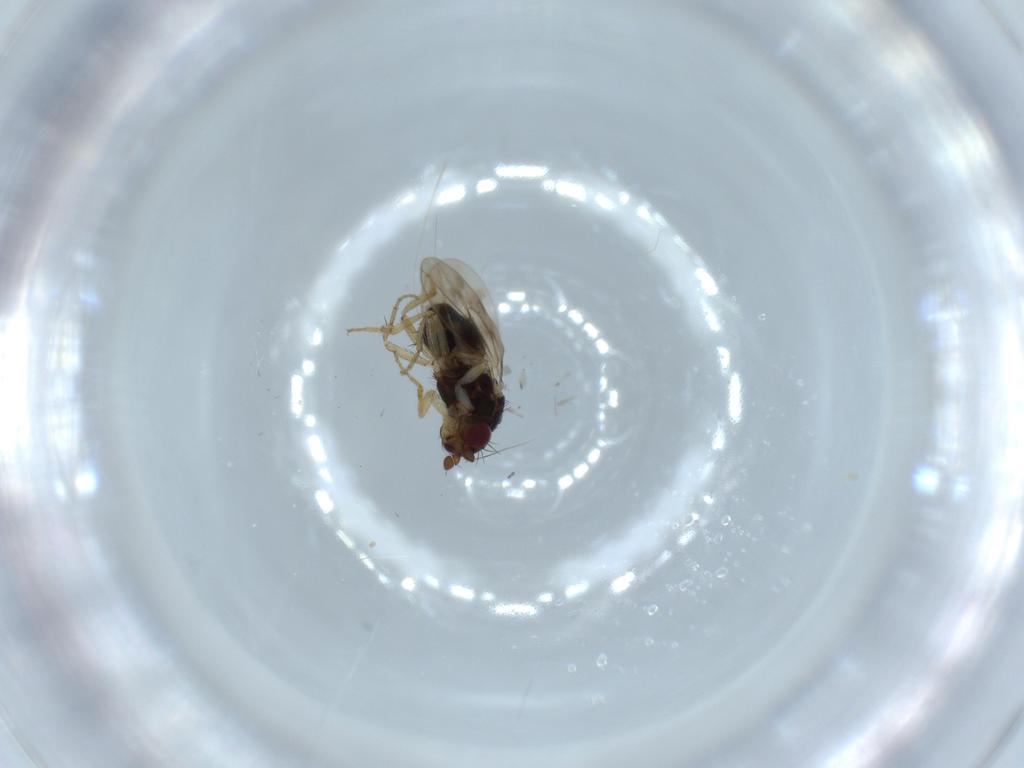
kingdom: Animalia
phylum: Arthropoda
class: Insecta
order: Diptera
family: Sphaeroceridae
